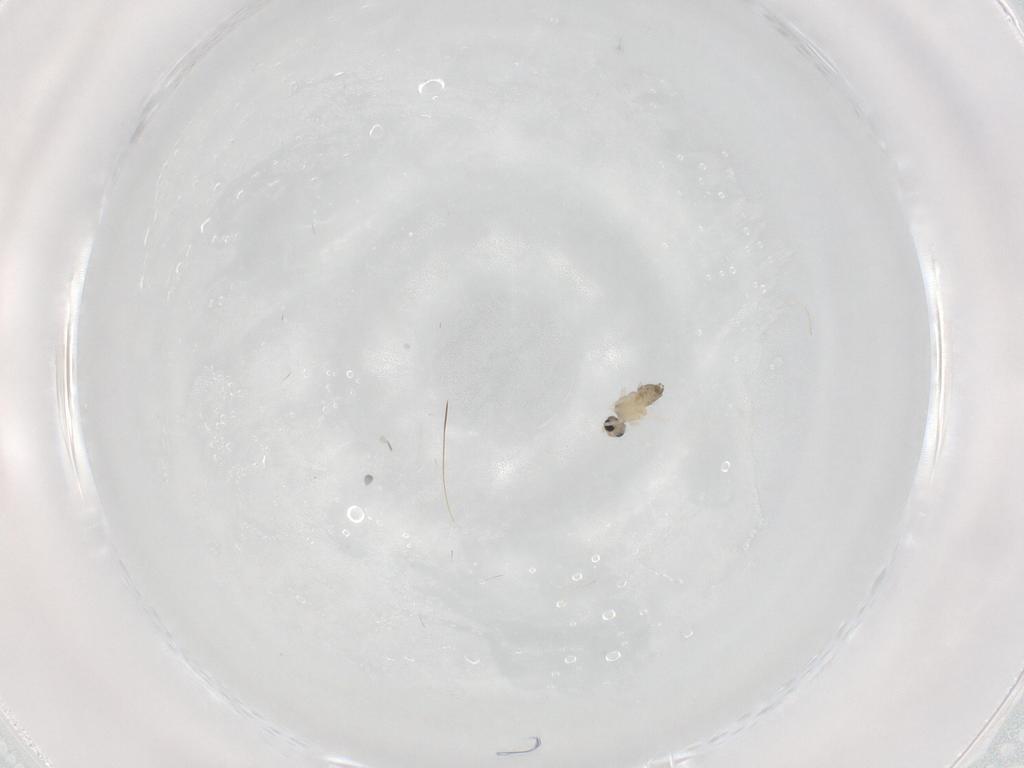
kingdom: Animalia
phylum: Arthropoda
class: Insecta
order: Diptera
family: Cecidomyiidae
